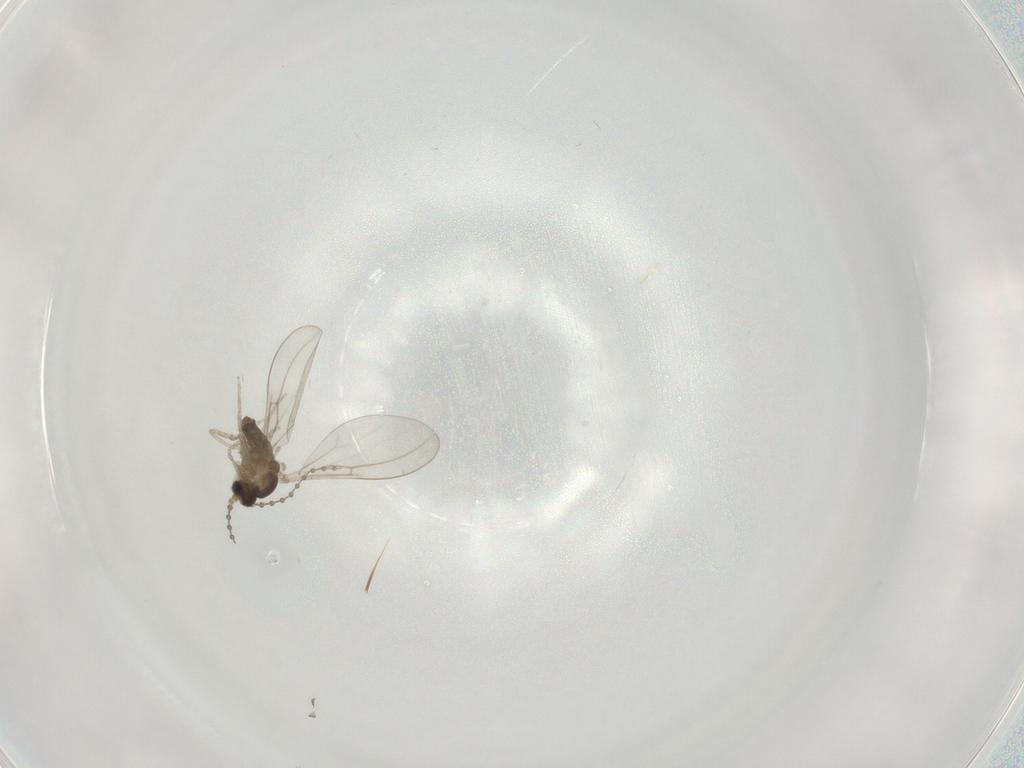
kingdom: Animalia
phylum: Arthropoda
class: Insecta
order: Diptera
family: Cecidomyiidae
